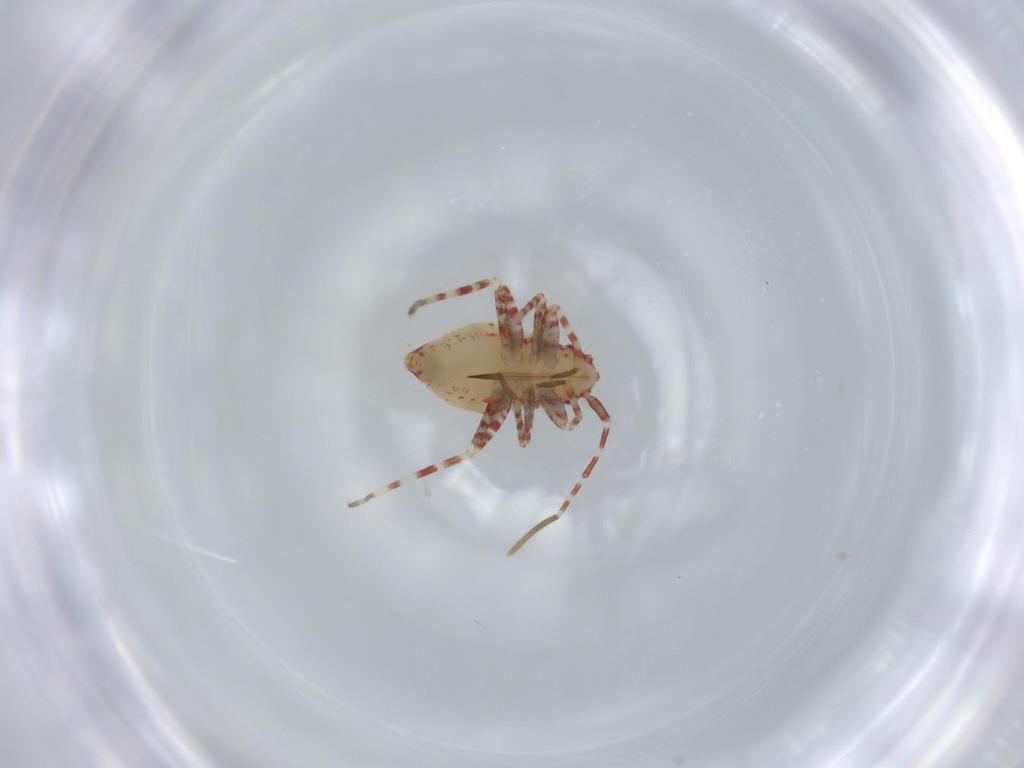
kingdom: Animalia
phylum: Arthropoda
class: Insecta
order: Hemiptera
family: Miridae
